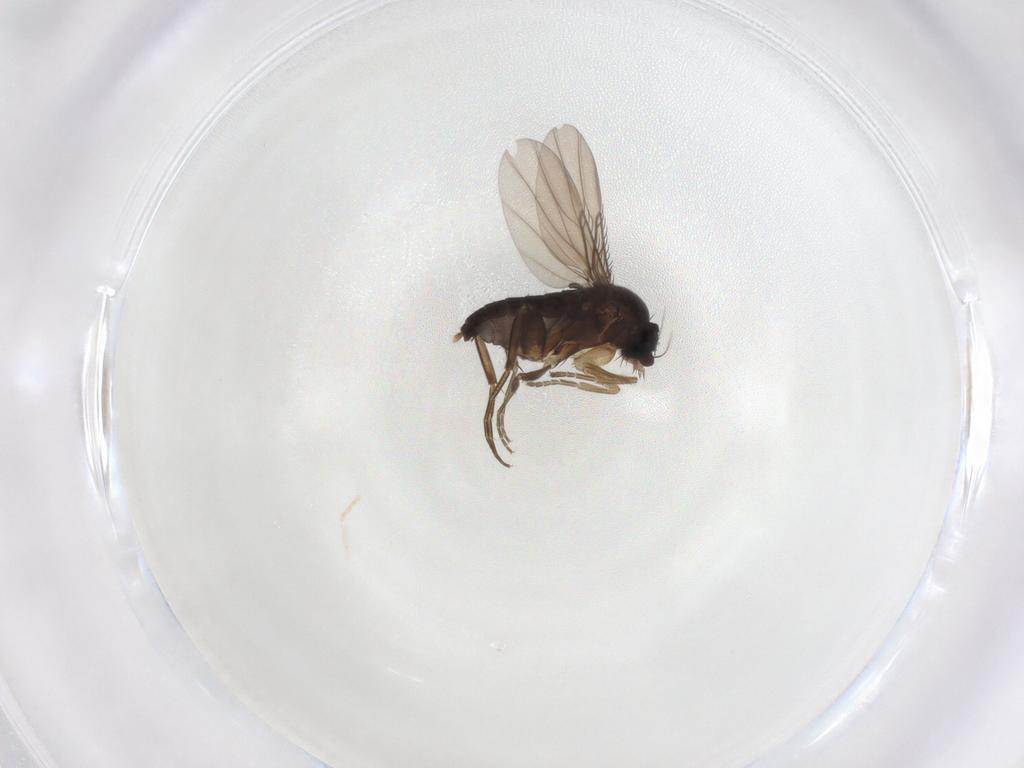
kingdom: Animalia
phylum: Arthropoda
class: Insecta
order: Diptera
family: Phoridae
